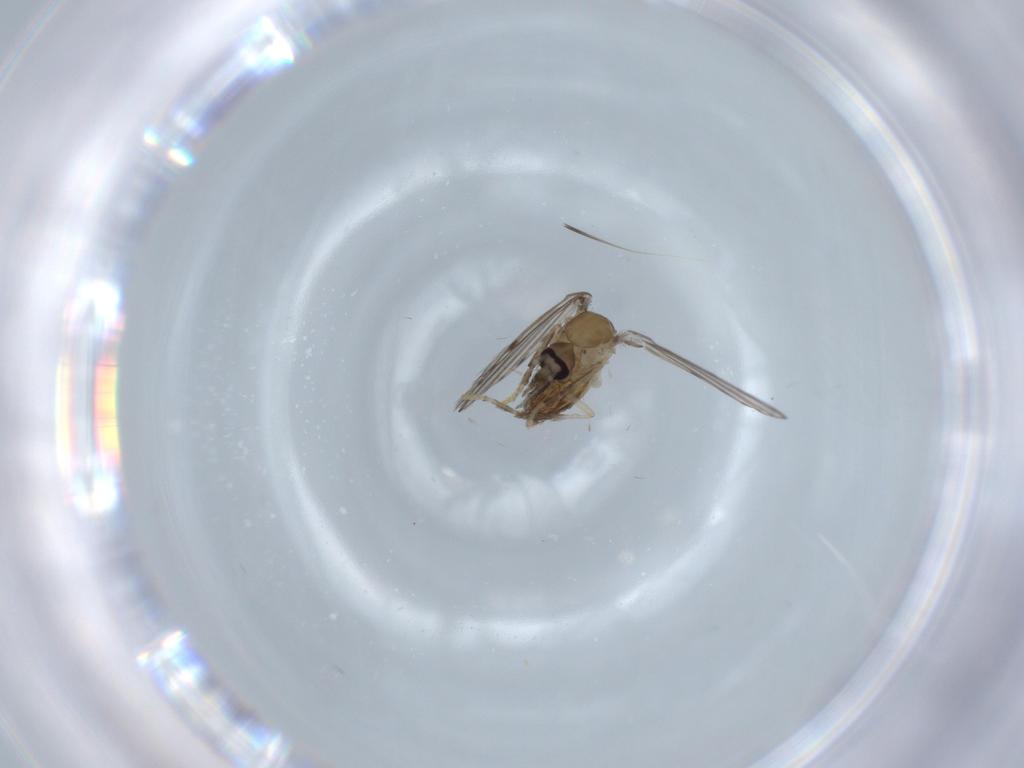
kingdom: Animalia
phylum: Arthropoda
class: Insecta
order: Diptera
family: Psychodidae
